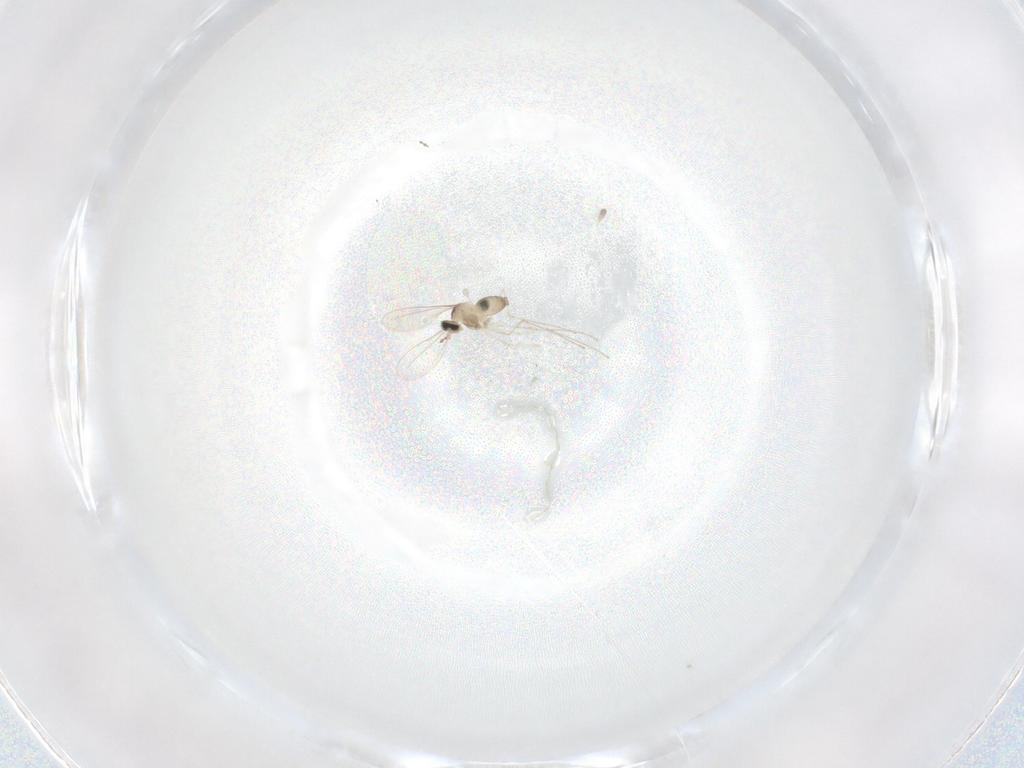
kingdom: Animalia
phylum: Arthropoda
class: Insecta
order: Diptera
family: Cecidomyiidae
